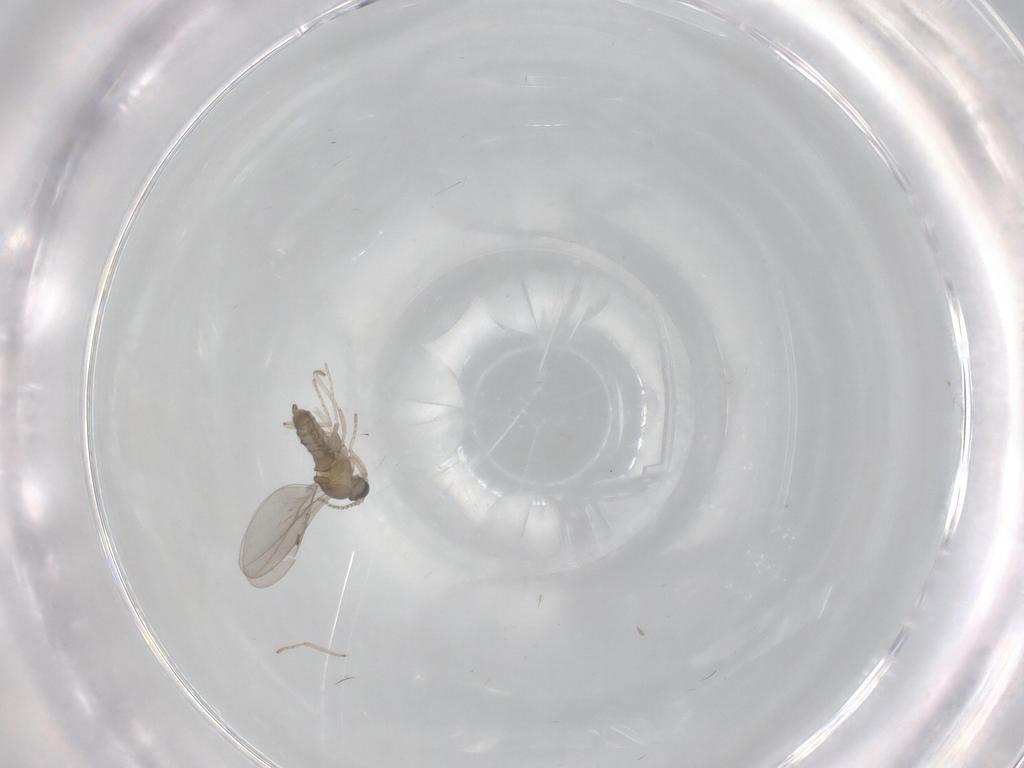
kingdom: Animalia
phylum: Arthropoda
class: Insecta
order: Diptera
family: Cecidomyiidae
